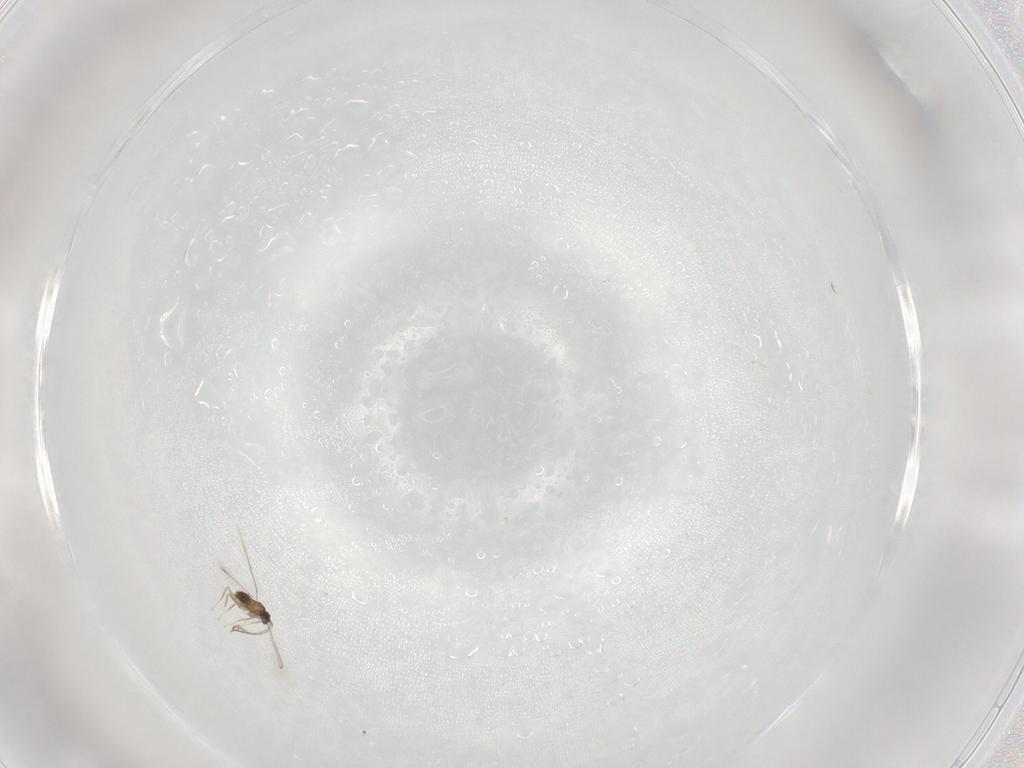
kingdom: Animalia
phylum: Arthropoda
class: Insecta
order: Hymenoptera
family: Mymaridae
